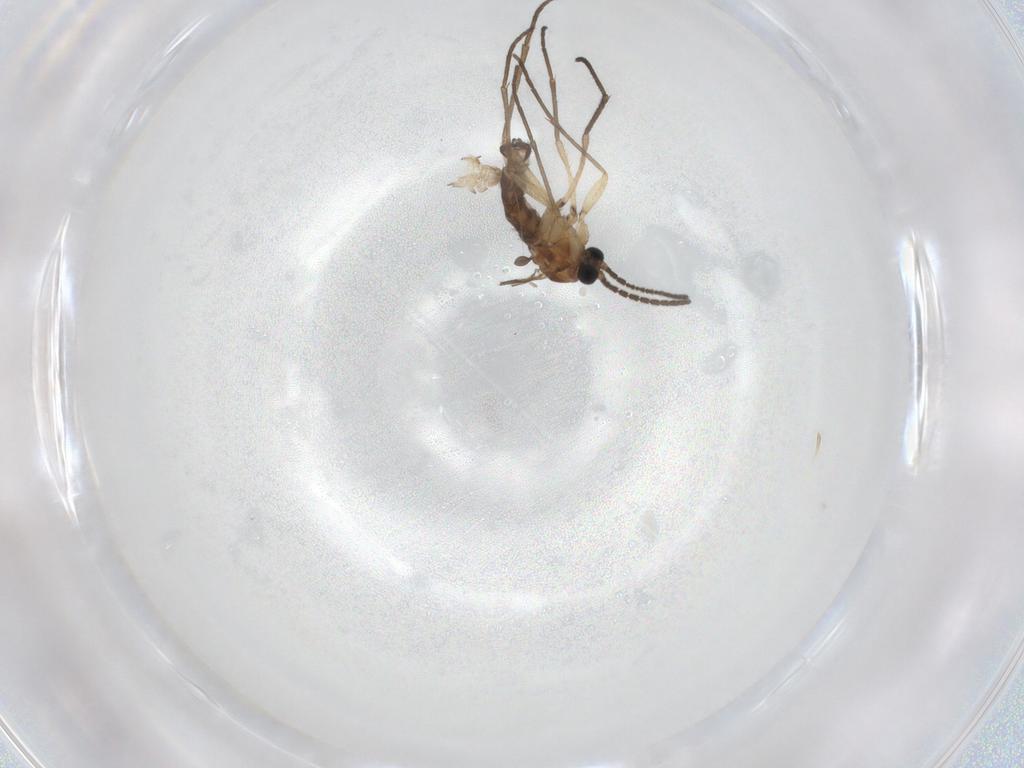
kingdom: Animalia
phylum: Arthropoda
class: Insecta
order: Diptera
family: Sciaridae
